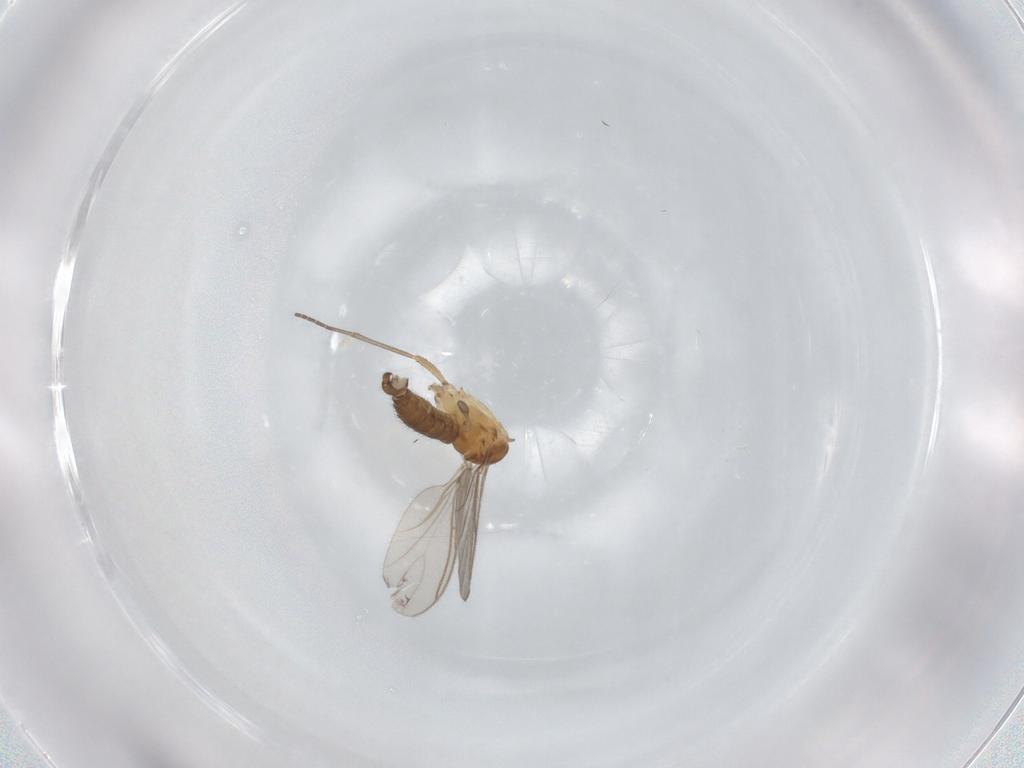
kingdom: Animalia
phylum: Arthropoda
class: Insecta
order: Diptera
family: Sciaridae
